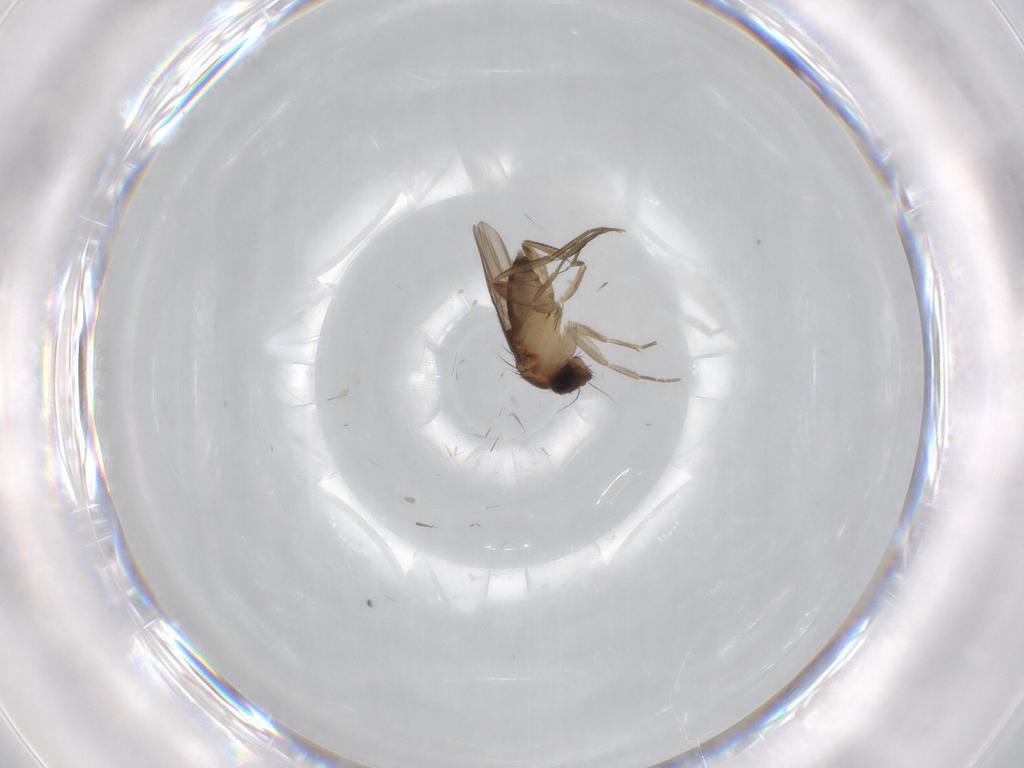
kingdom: Animalia
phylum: Arthropoda
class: Insecta
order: Diptera
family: Phoridae
